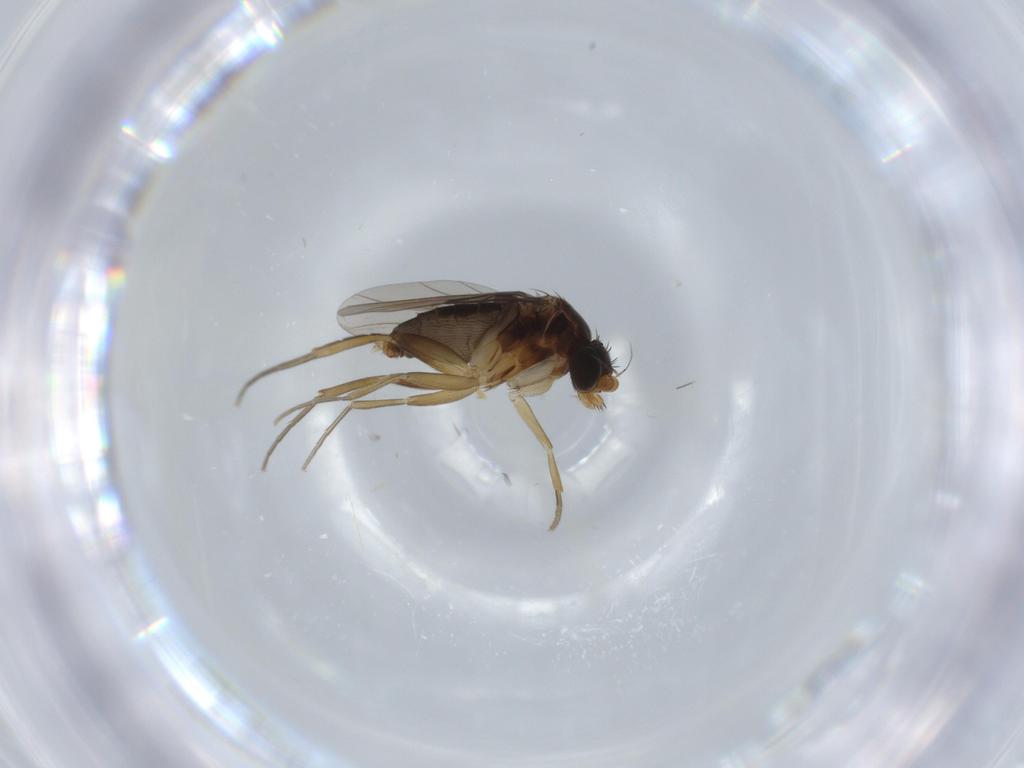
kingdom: Animalia
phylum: Arthropoda
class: Insecta
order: Diptera
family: Phoridae
